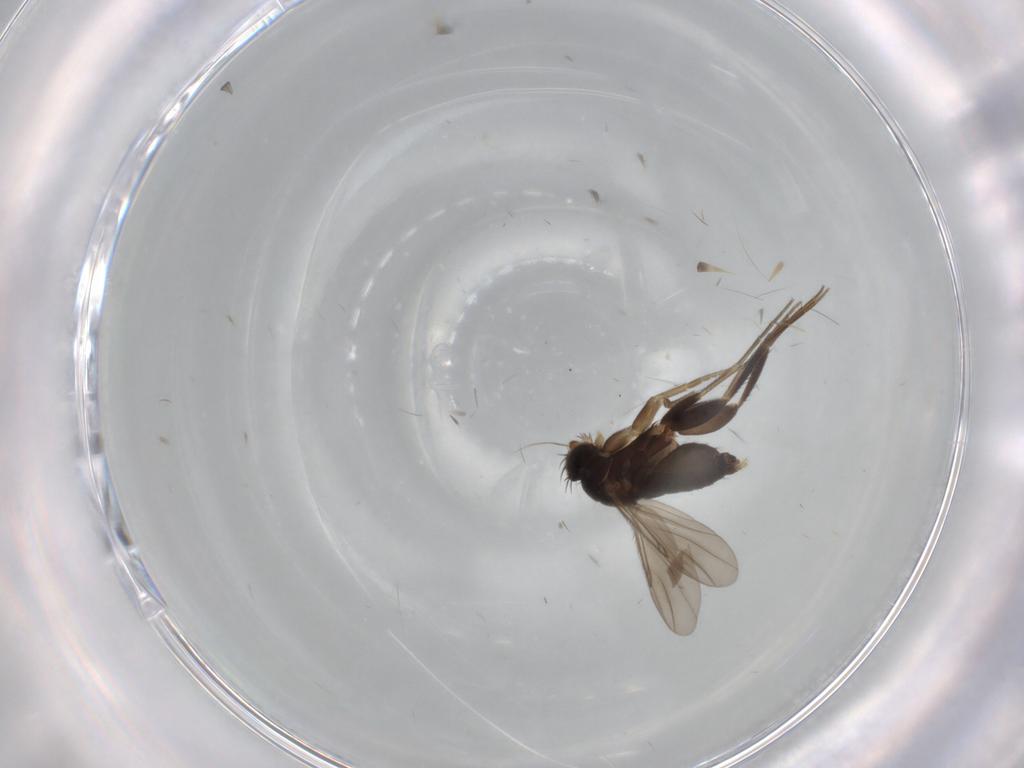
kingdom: Animalia
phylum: Arthropoda
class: Insecta
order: Diptera
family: Phoridae
